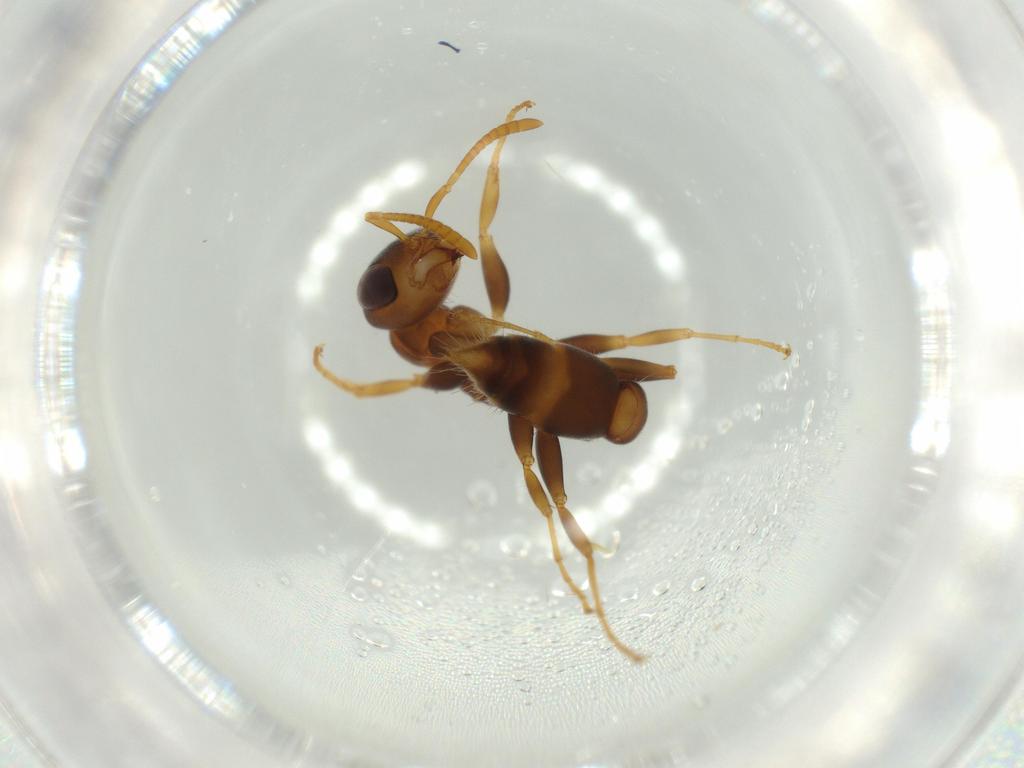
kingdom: Animalia
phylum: Arthropoda
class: Insecta
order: Hymenoptera
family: Formicidae
